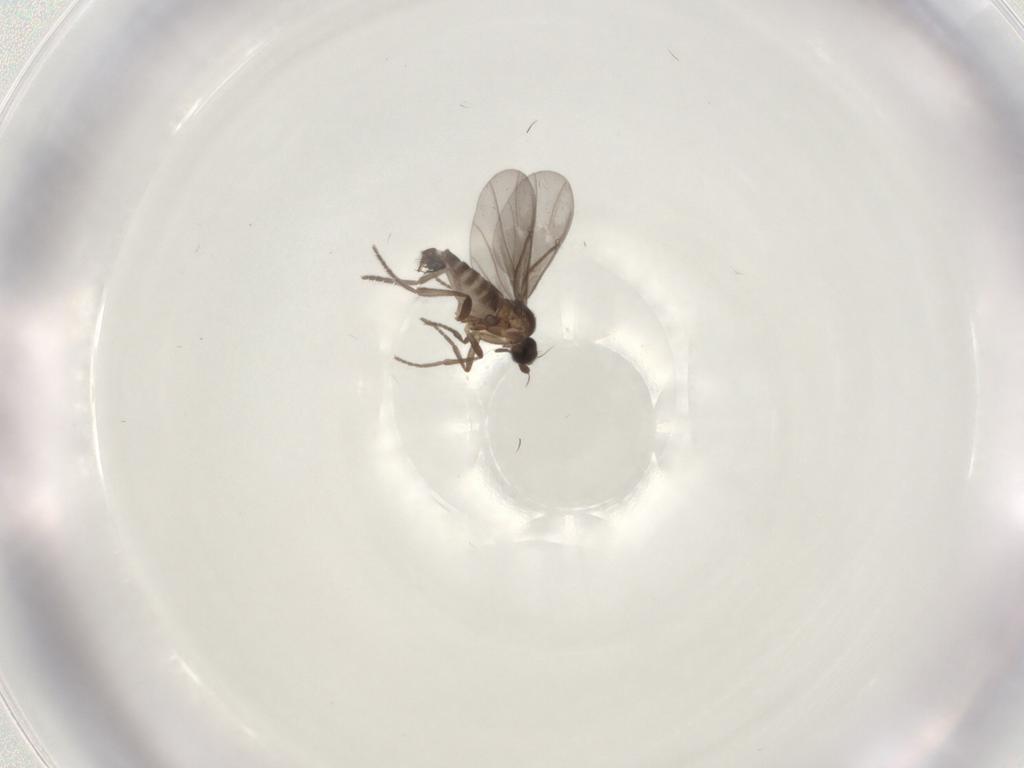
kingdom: Animalia
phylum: Arthropoda
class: Insecta
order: Diptera
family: Phoridae
